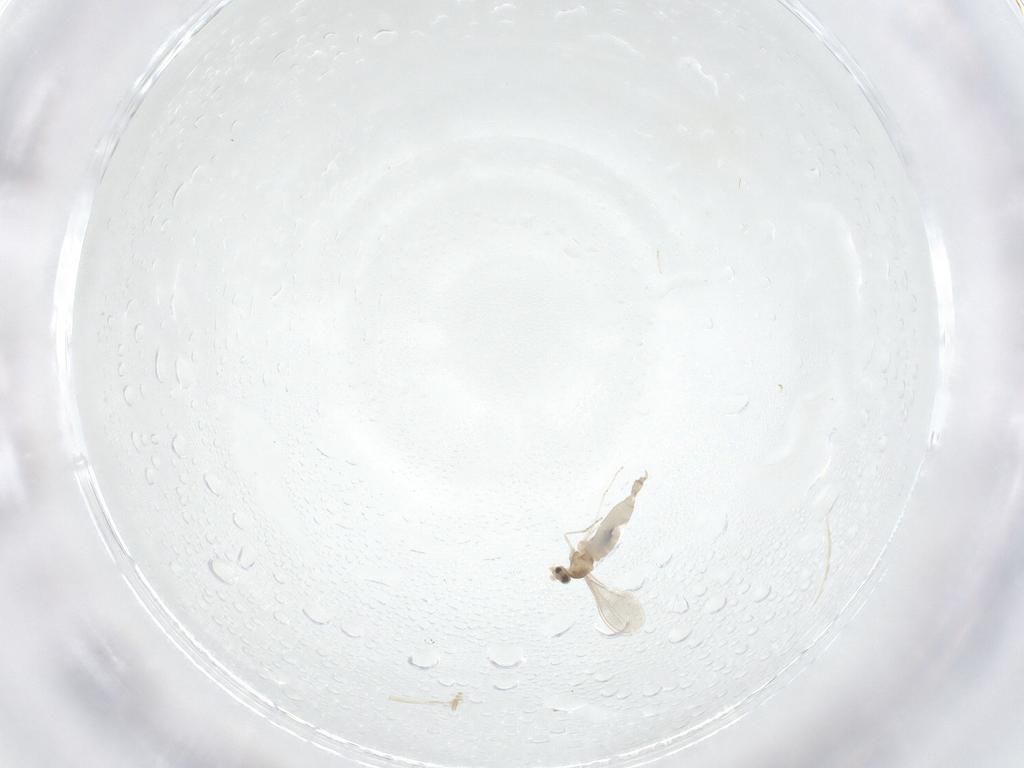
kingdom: Animalia
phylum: Arthropoda
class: Insecta
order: Diptera
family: Cecidomyiidae
